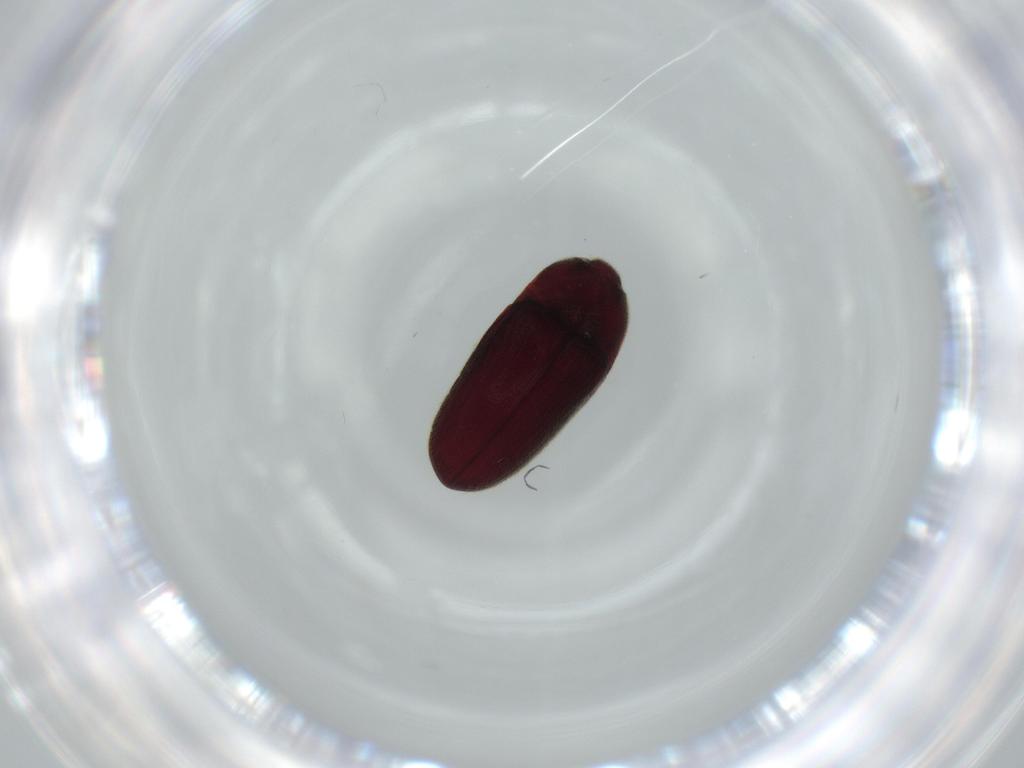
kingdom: Animalia
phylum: Arthropoda
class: Insecta
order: Coleoptera
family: Throscidae
